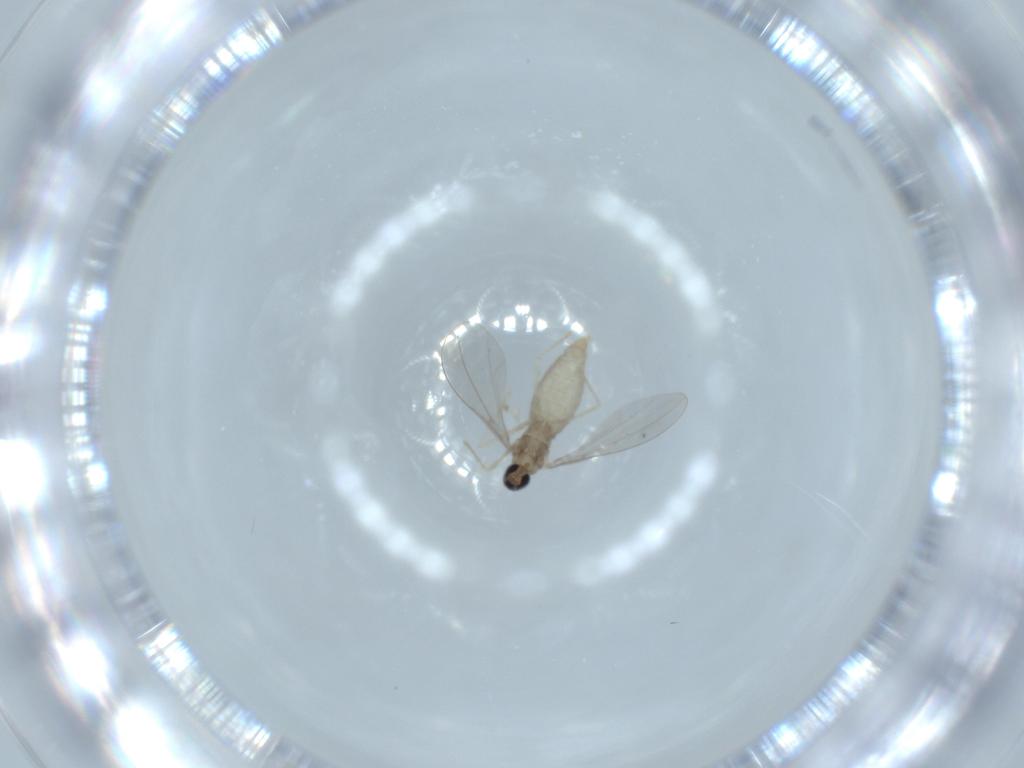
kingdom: Animalia
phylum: Arthropoda
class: Insecta
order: Diptera
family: Cecidomyiidae
